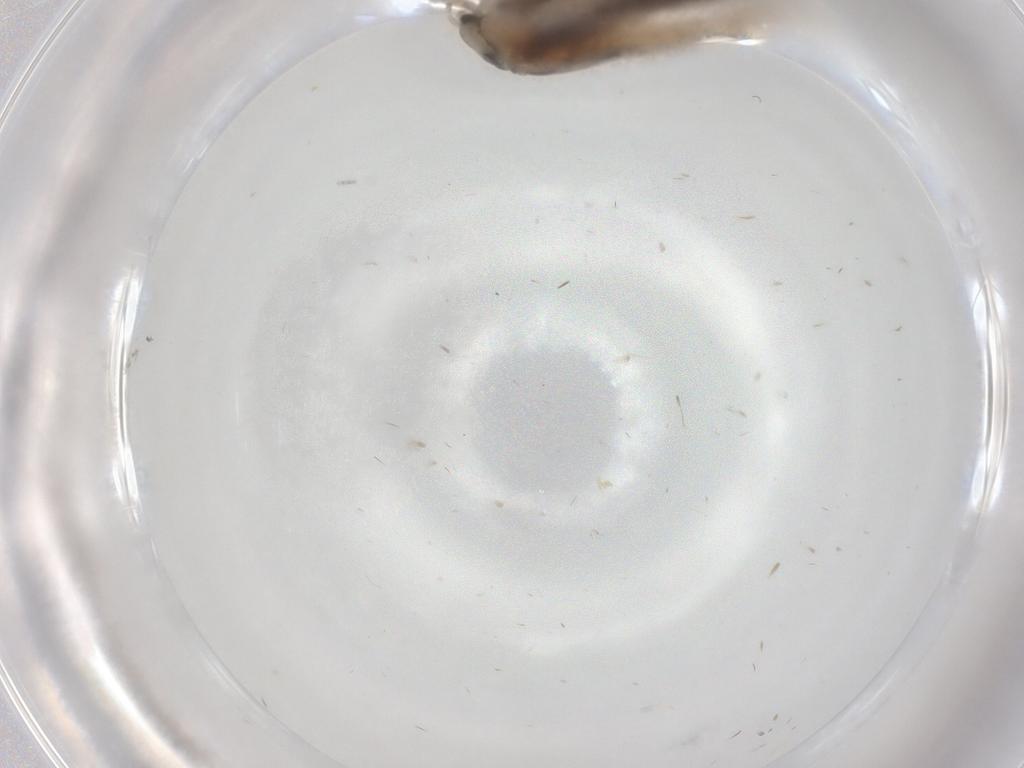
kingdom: Animalia
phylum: Arthropoda
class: Insecta
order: Lepidoptera
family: Psychidae
